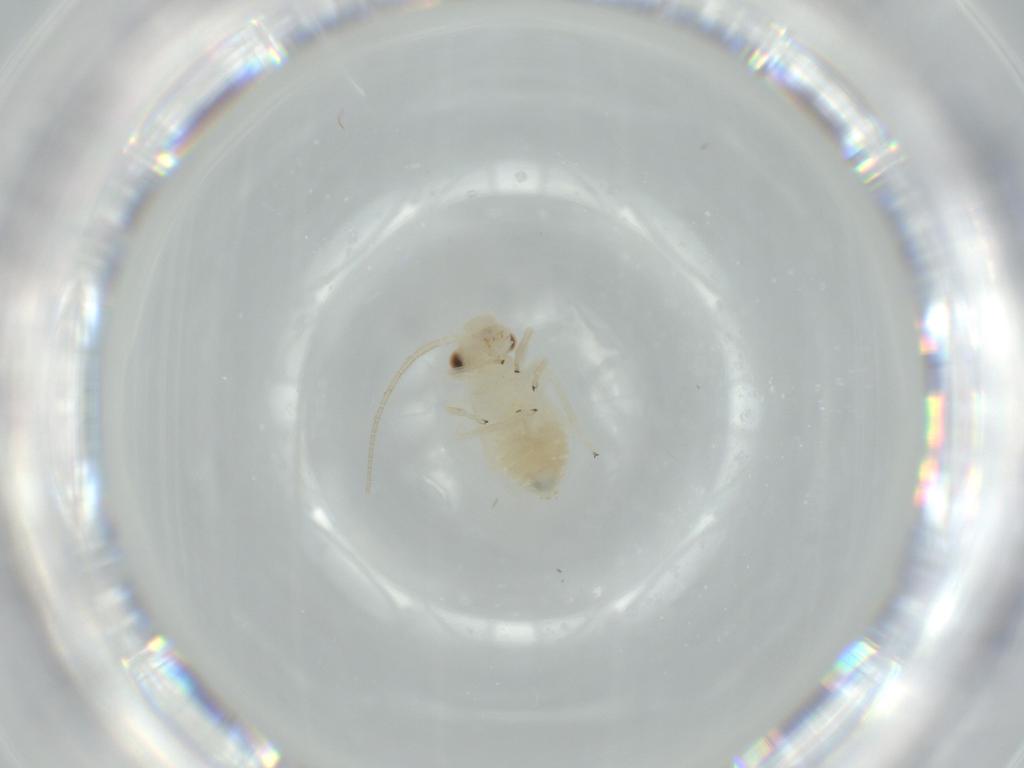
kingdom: Animalia
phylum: Arthropoda
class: Insecta
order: Psocodea
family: Caeciliusidae
